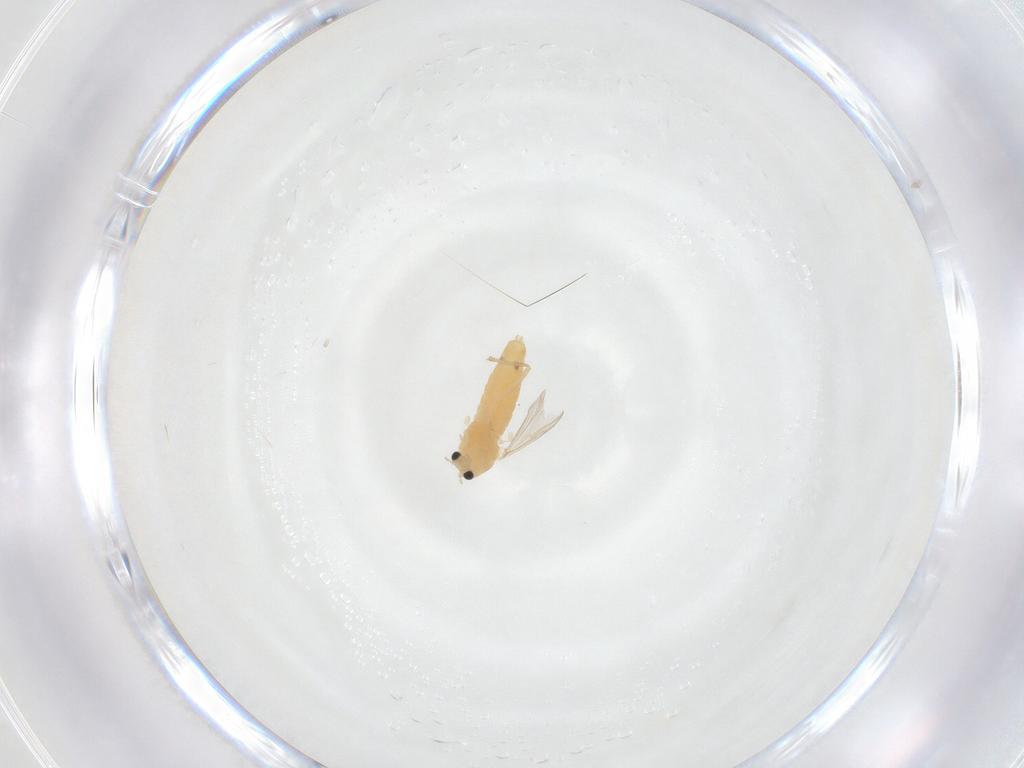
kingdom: Animalia
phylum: Arthropoda
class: Insecta
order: Diptera
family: Chironomidae
